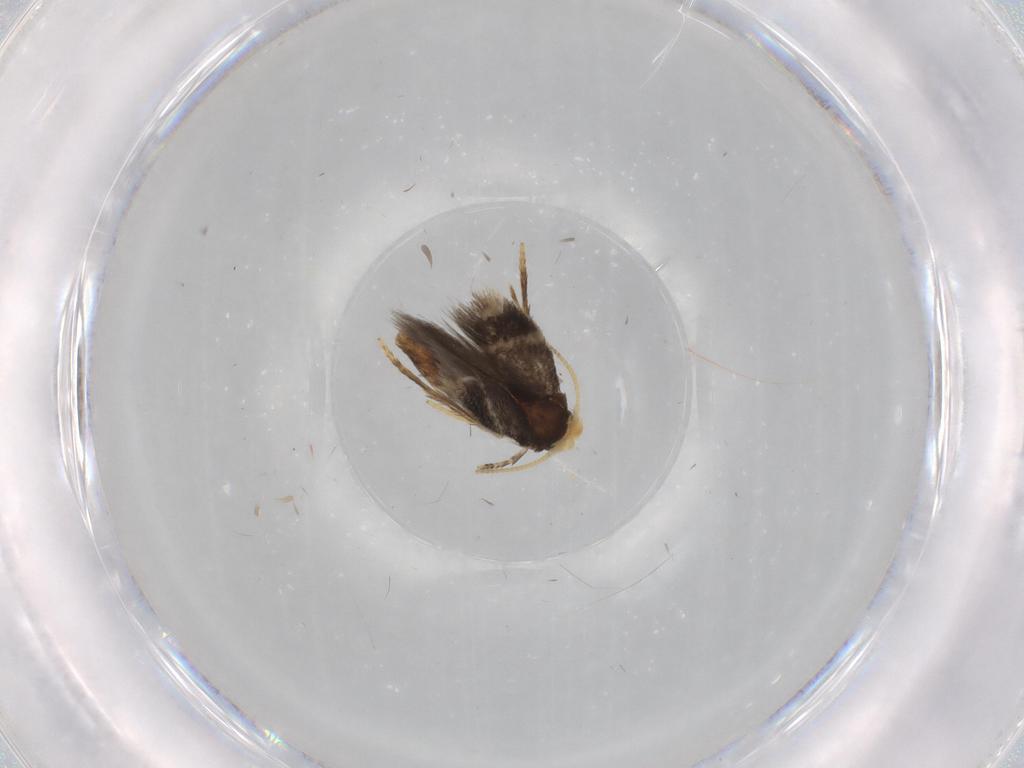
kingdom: Animalia
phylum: Arthropoda
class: Insecta
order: Lepidoptera
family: Nepticulidae
